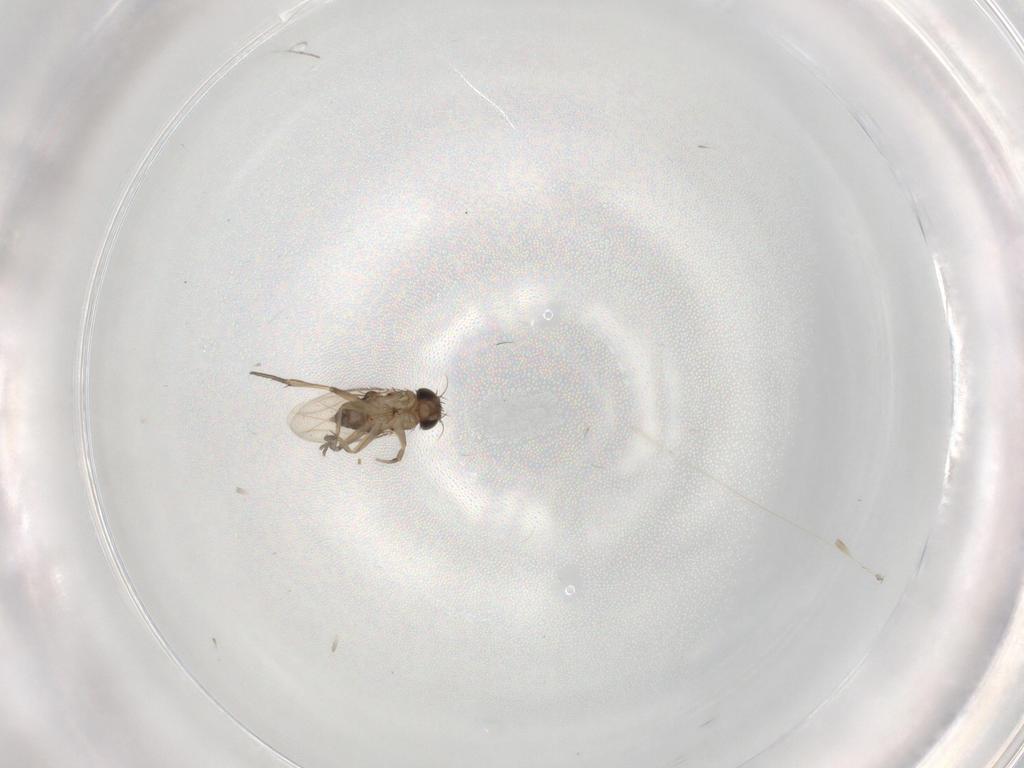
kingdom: Animalia
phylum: Arthropoda
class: Insecta
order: Diptera
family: Phoridae
